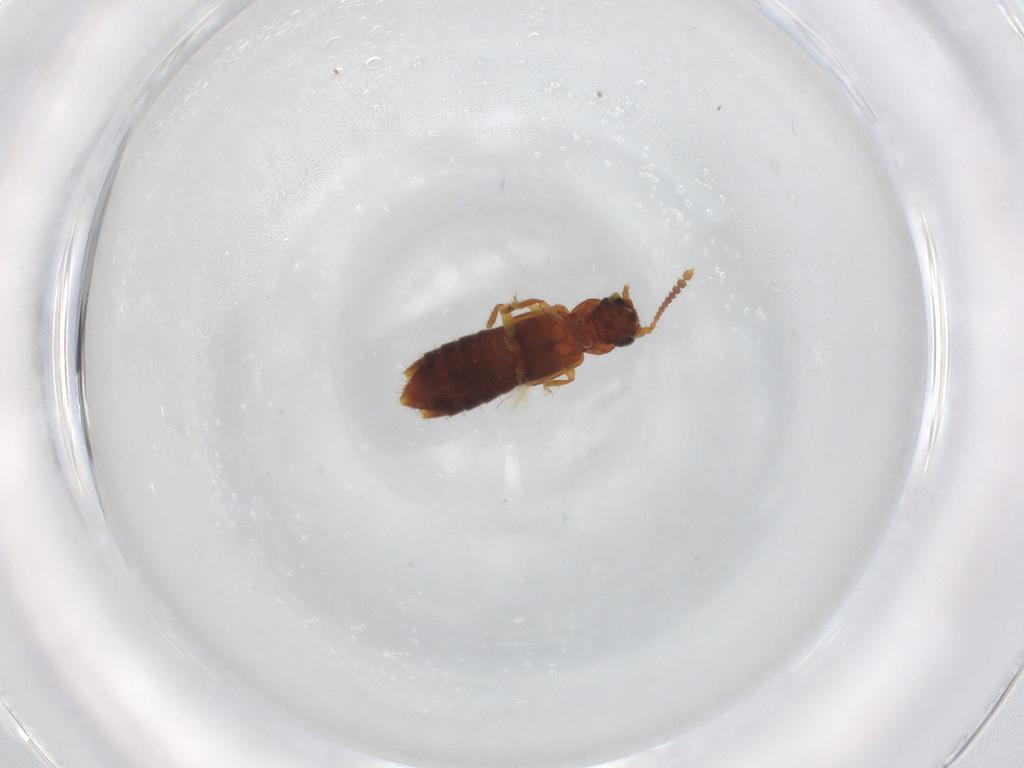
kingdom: Animalia
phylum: Arthropoda
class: Insecta
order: Coleoptera
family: Staphylinidae
